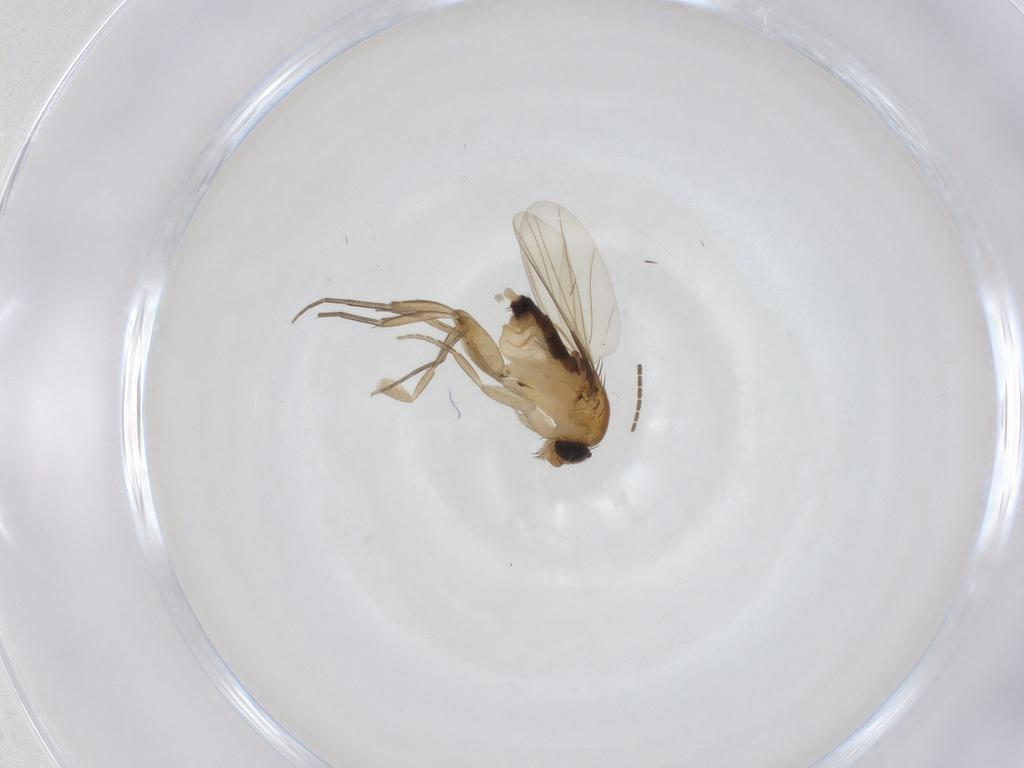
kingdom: Animalia
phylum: Arthropoda
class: Insecta
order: Diptera
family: Phoridae
